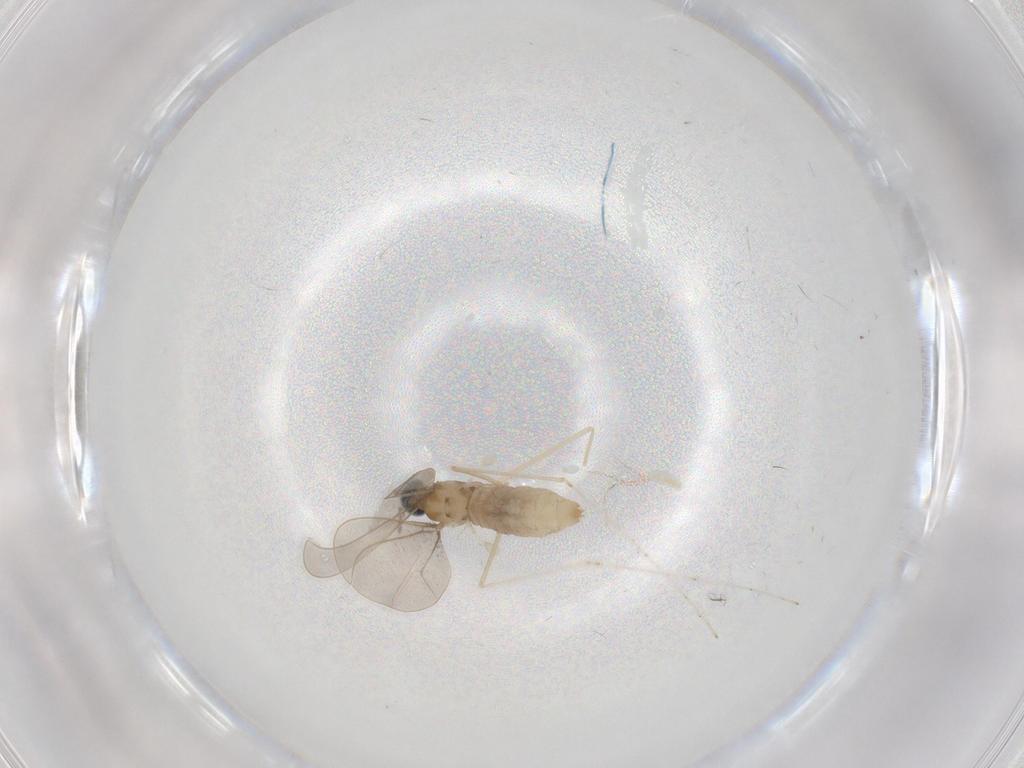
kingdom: Animalia
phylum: Arthropoda
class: Insecta
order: Diptera
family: Cecidomyiidae
